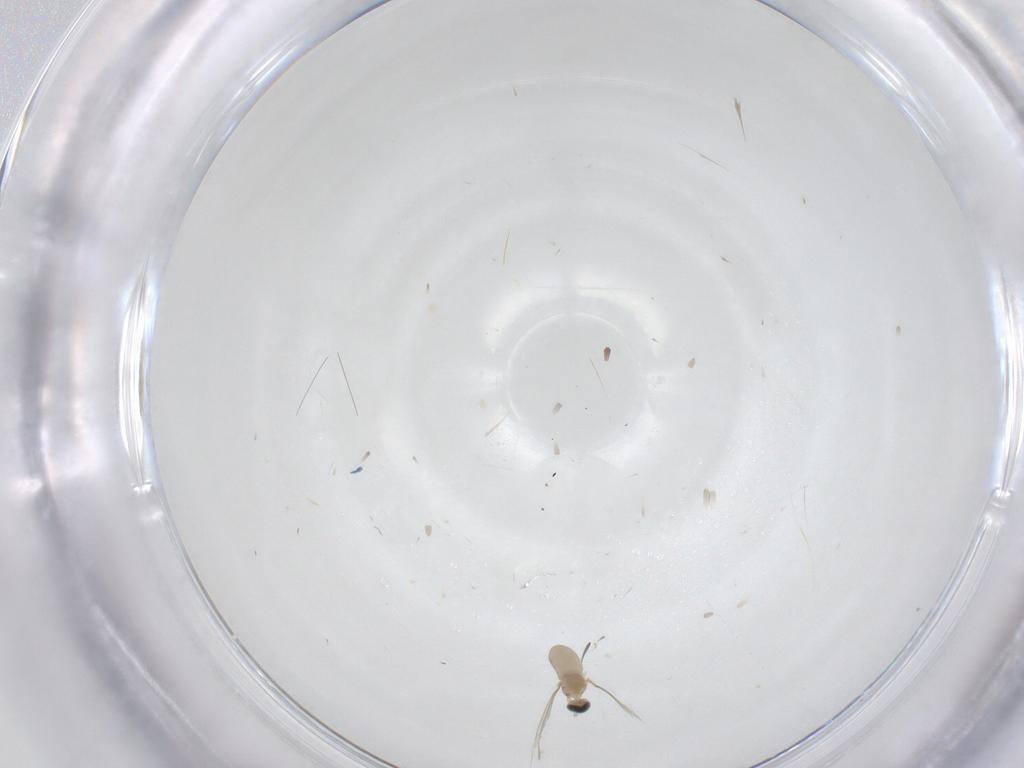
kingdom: Animalia
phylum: Arthropoda
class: Insecta
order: Diptera
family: Cecidomyiidae
